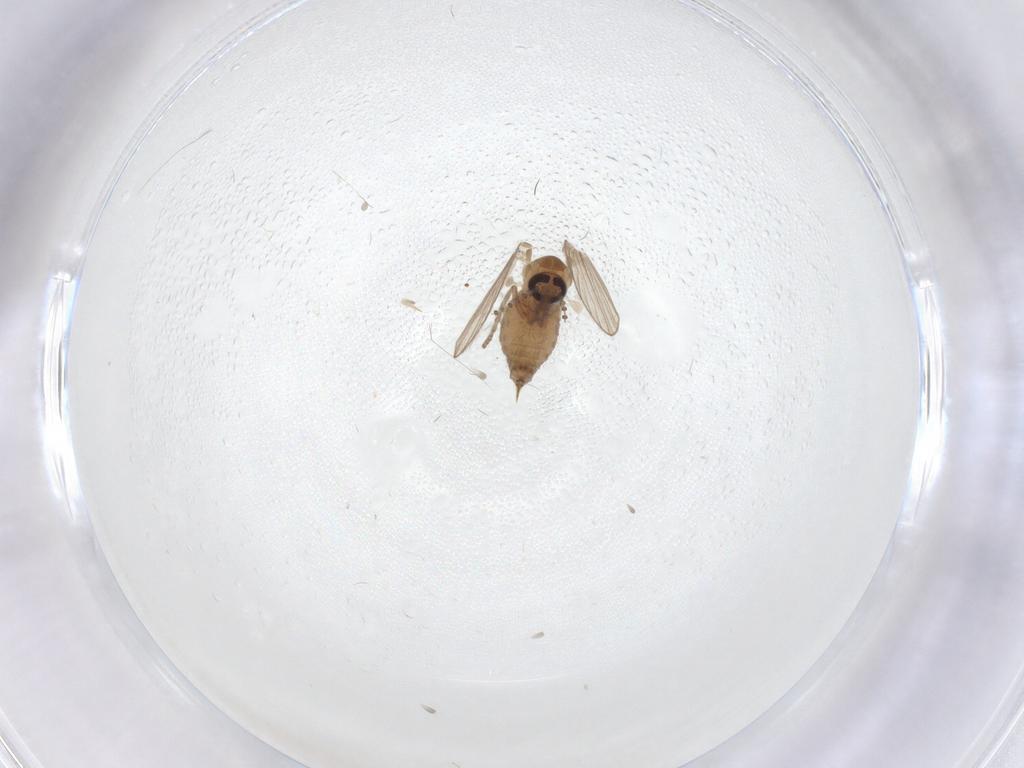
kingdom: Animalia
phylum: Arthropoda
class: Insecta
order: Diptera
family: Psychodidae
